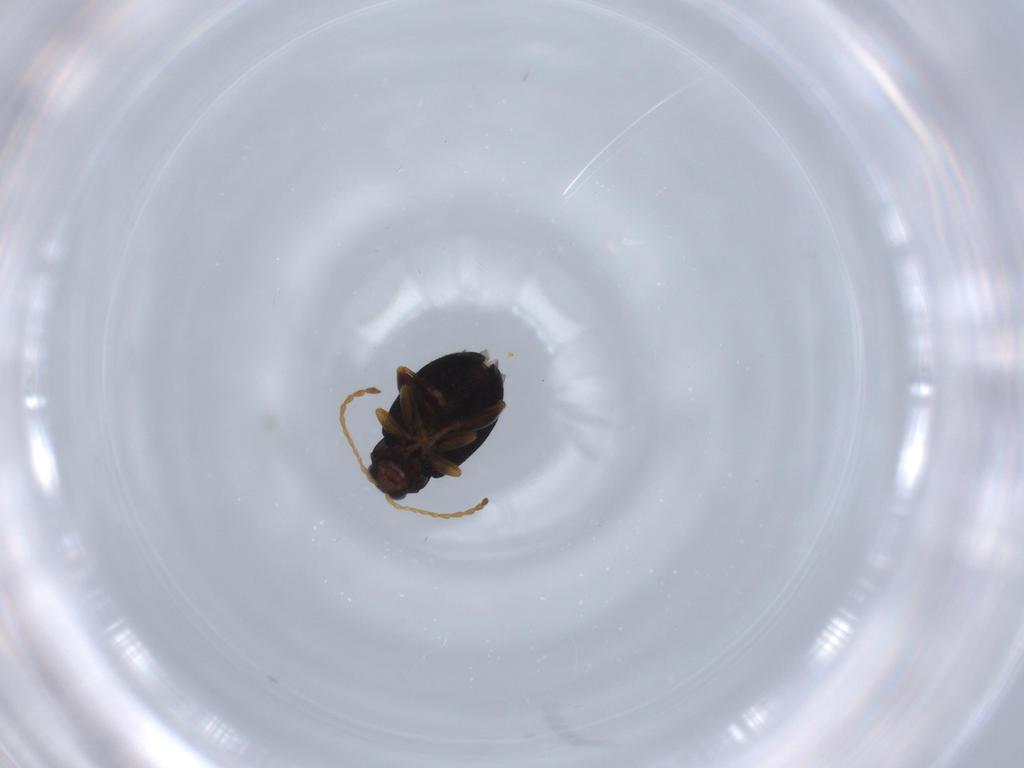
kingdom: Animalia
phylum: Arthropoda
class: Insecta
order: Coleoptera
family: Chrysomelidae
